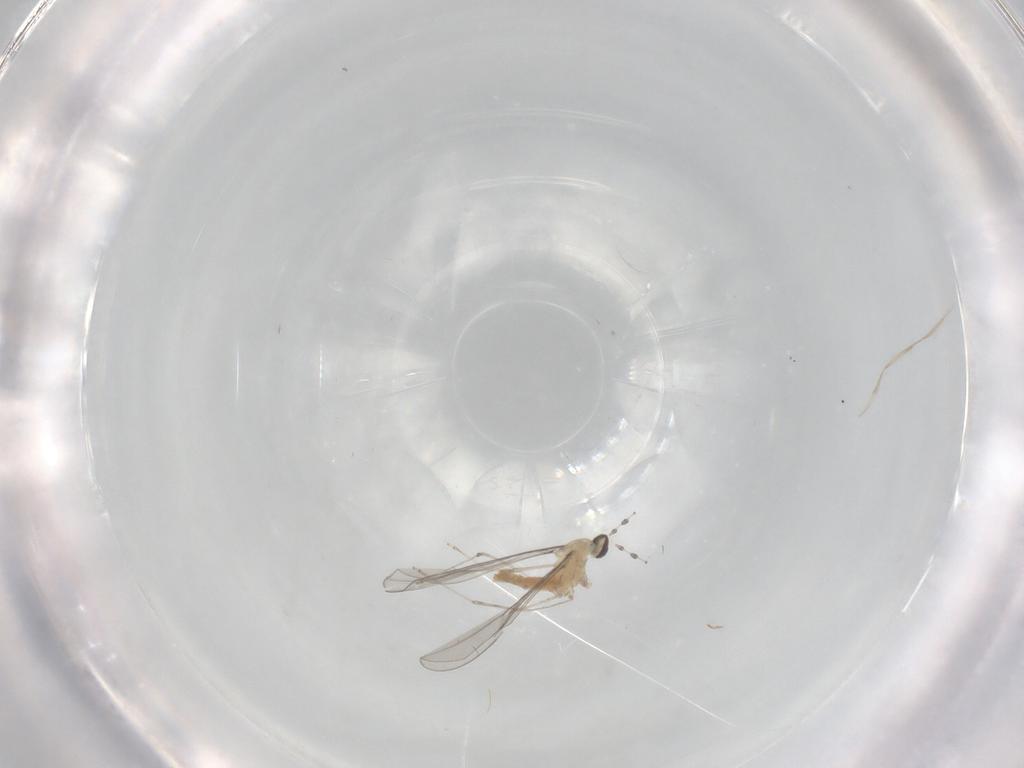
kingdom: Animalia
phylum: Arthropoda
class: Insecta
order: Diptera
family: Cecidomyiidae
